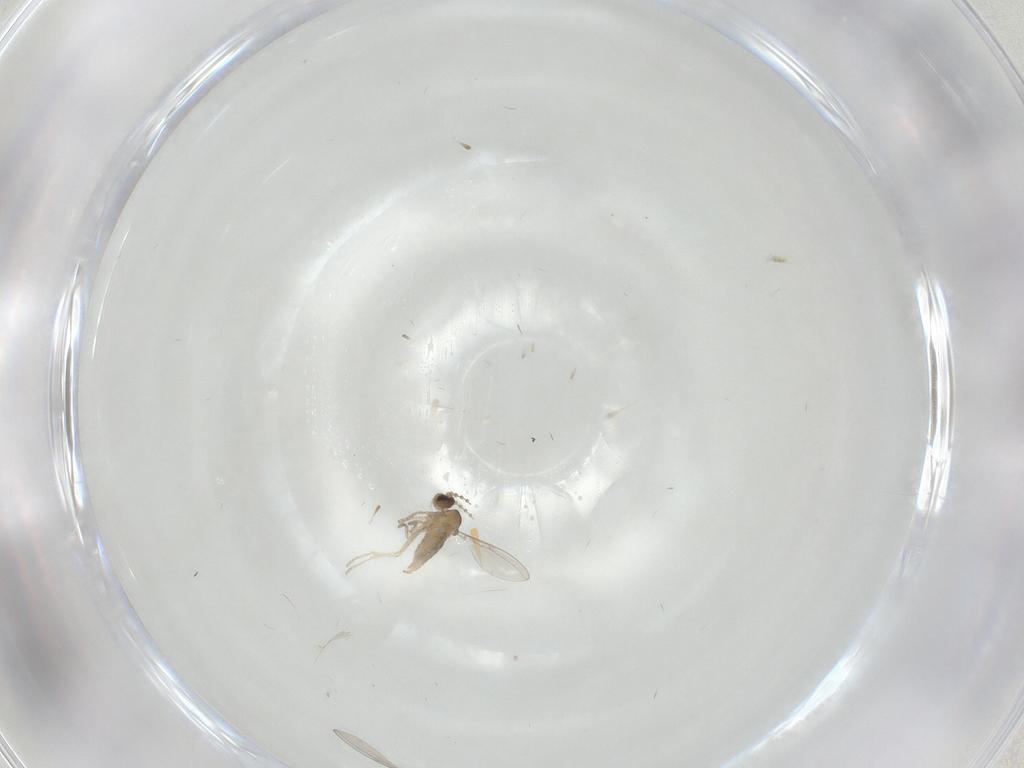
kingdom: Animalia
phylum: Arthropoda
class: Insecta
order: Diptera
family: Cecidomyiidae
